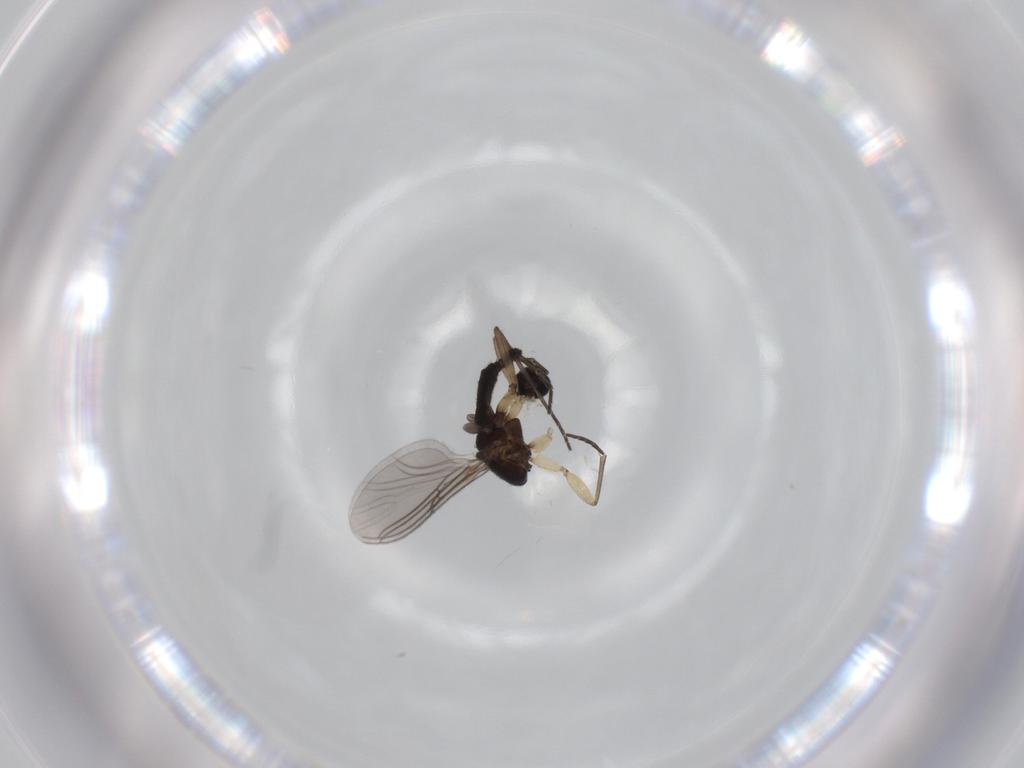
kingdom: Animalia
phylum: Arthropoda
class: Insecta
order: Diptera
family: Sciaridae
